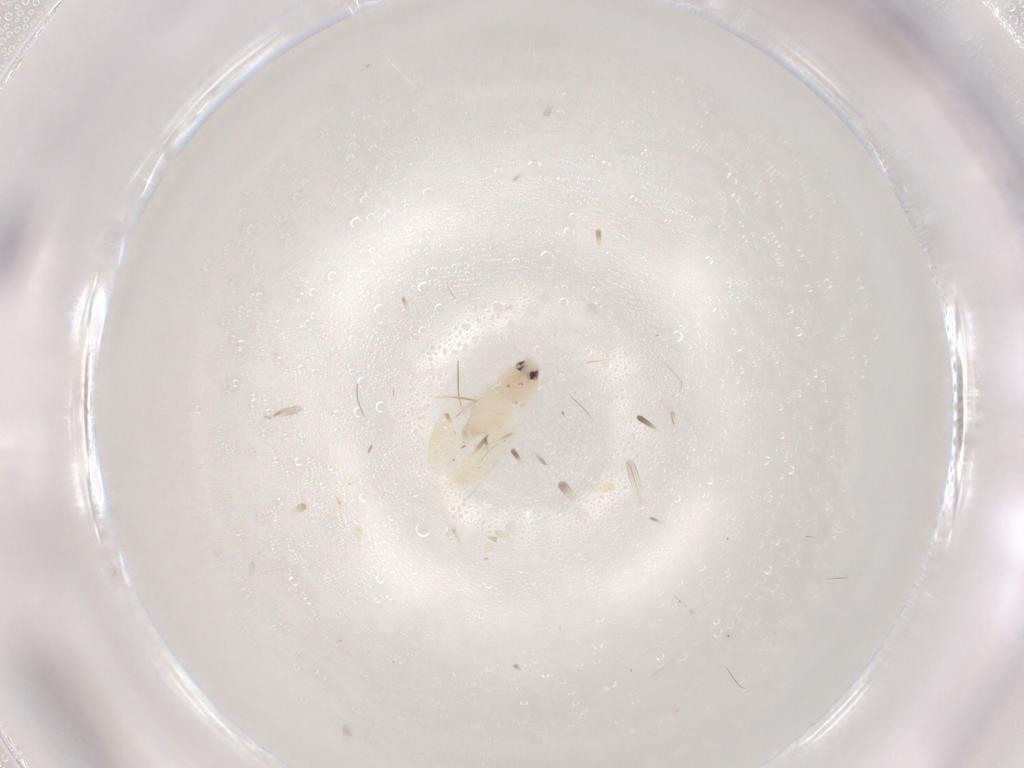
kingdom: Animalia
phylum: Arthropoda
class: Insecta
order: Hemiptera
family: Aleyrodidae
